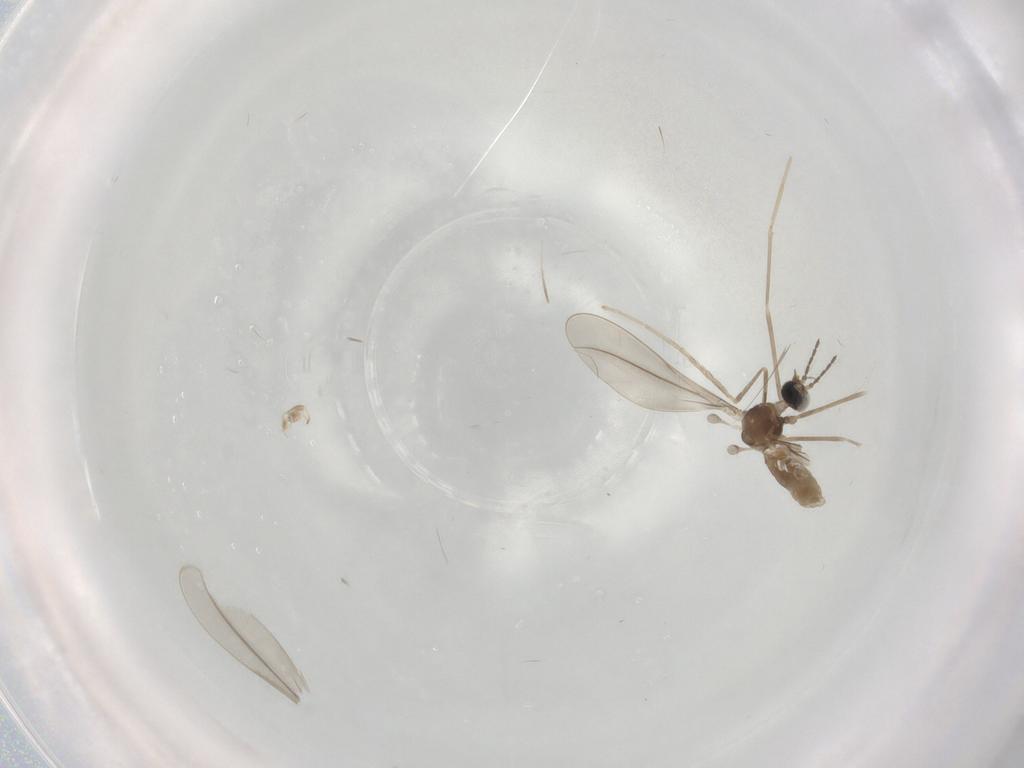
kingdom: Animalia
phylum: Arthropoda
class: Insecta
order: Diptera
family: Cecidomyiidae
